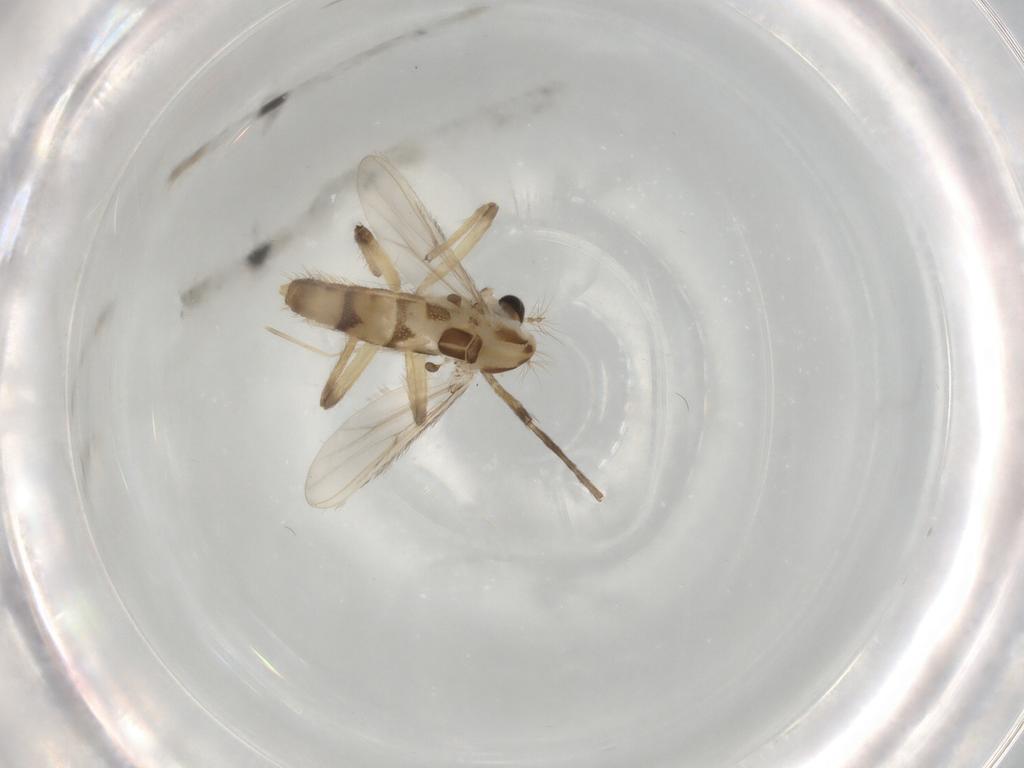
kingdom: Animalia
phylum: Arthropoda
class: Insecta
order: Diptera
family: Chironomidae
